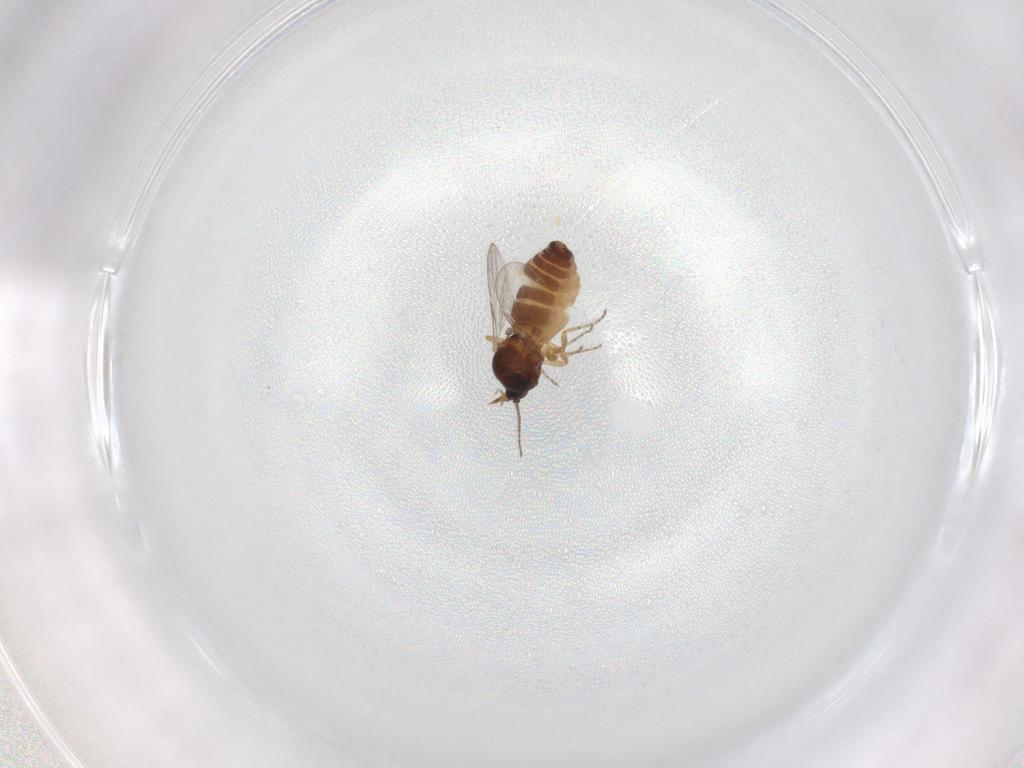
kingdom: Animalia
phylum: Arthropoda
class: Insecta
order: Diptera
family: Ceratopogonidae
